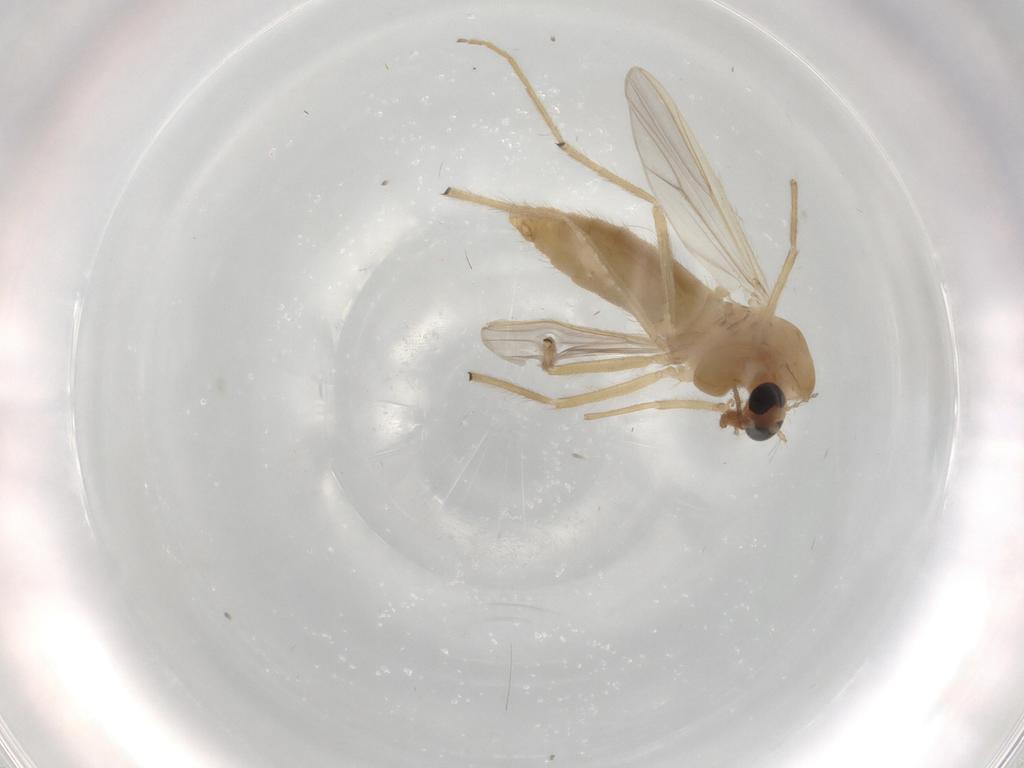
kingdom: Animalia
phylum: Arthropoda
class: Insecta
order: Diptera
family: Chironomidae
